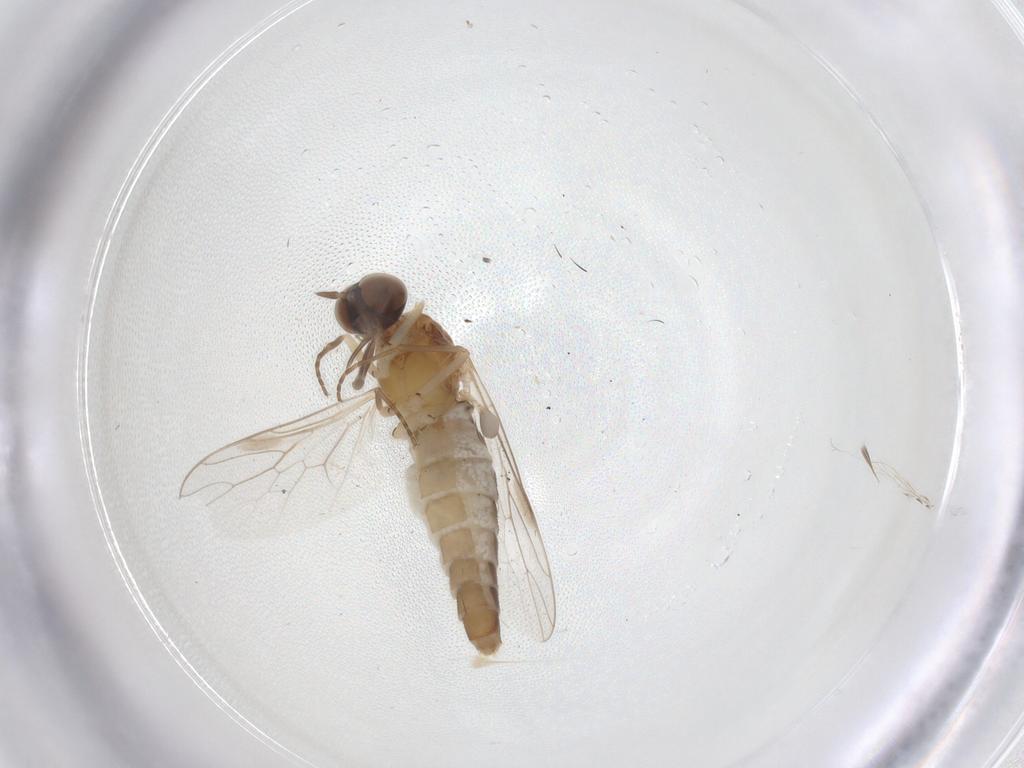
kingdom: Animalia
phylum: Arthropoda
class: Insecta
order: Diptera
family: Scenopinidae
